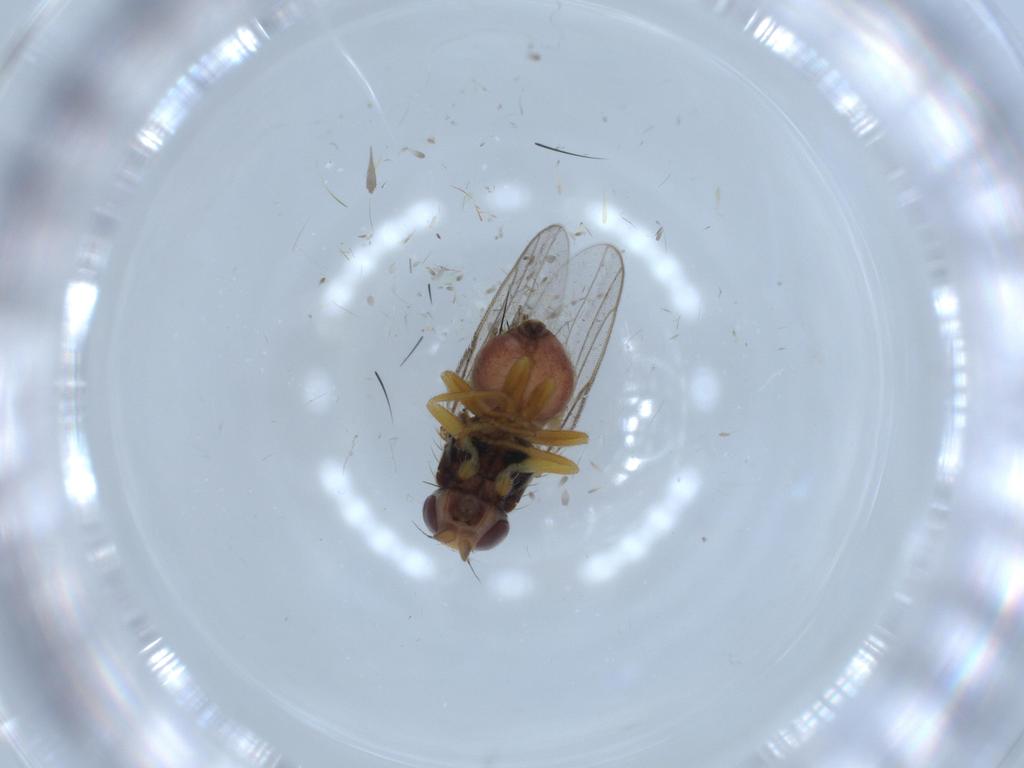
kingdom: Animalia
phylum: Arthropoda
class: Insecta
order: Diptera
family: Chloropidae
